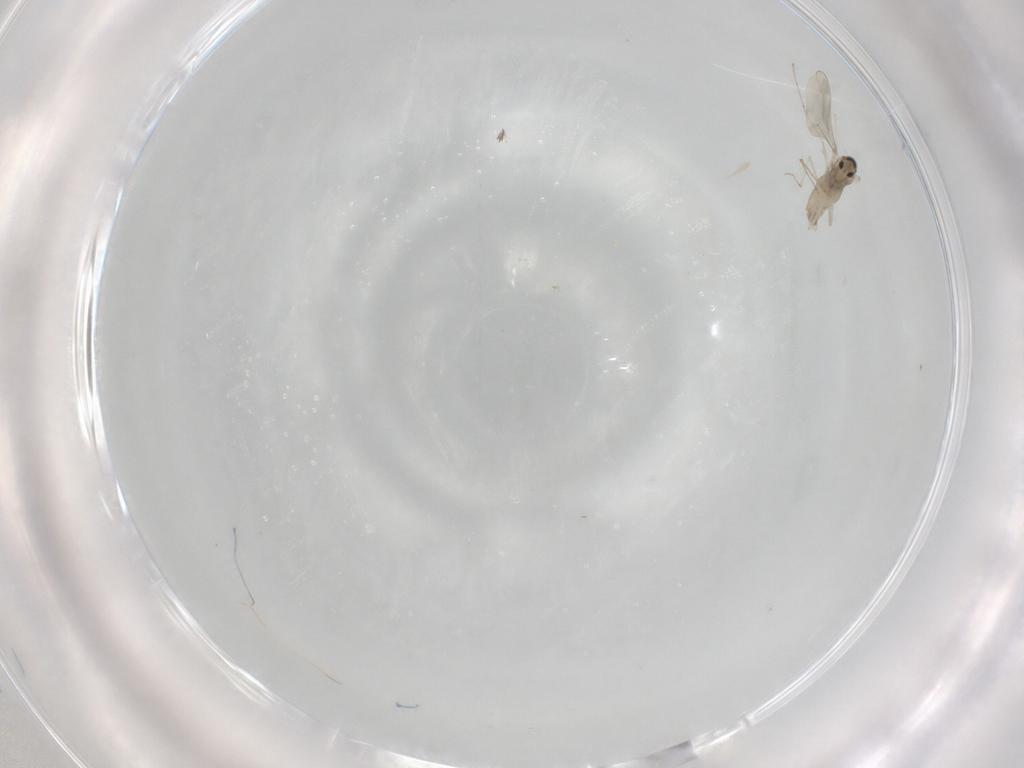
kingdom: Animalia
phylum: Arthropoda
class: Insecta
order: Diptera
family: Cecidomyiidae
